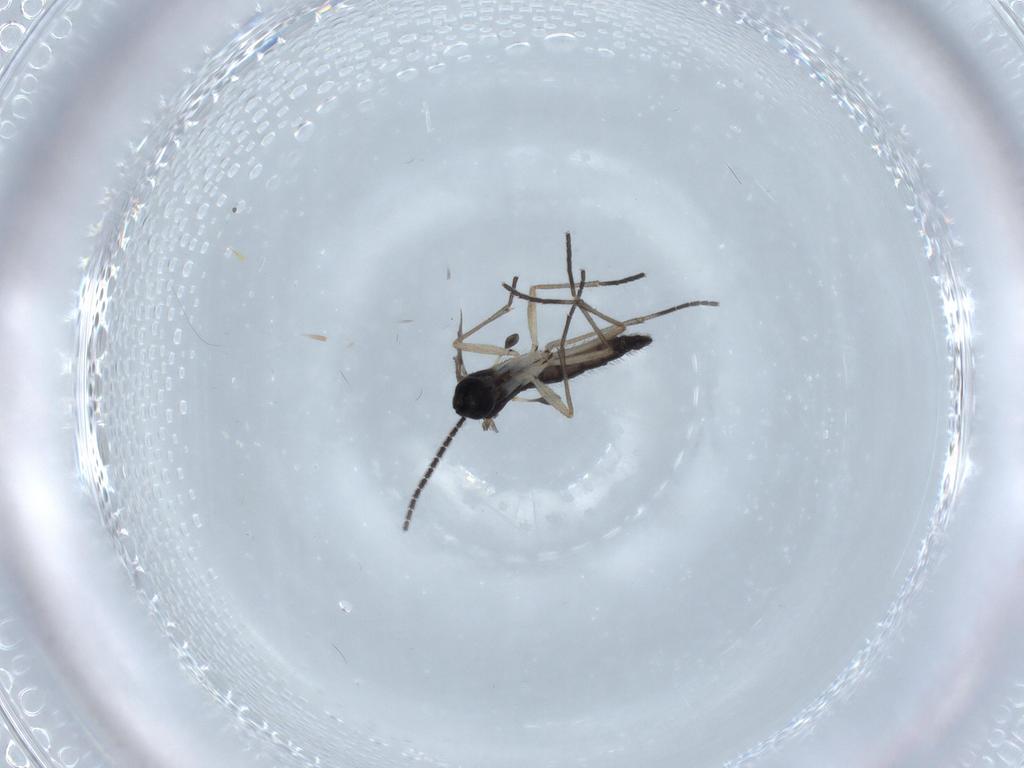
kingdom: Animalia
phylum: Arthropoda
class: Insecta
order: Diptera
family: Sciaridae
